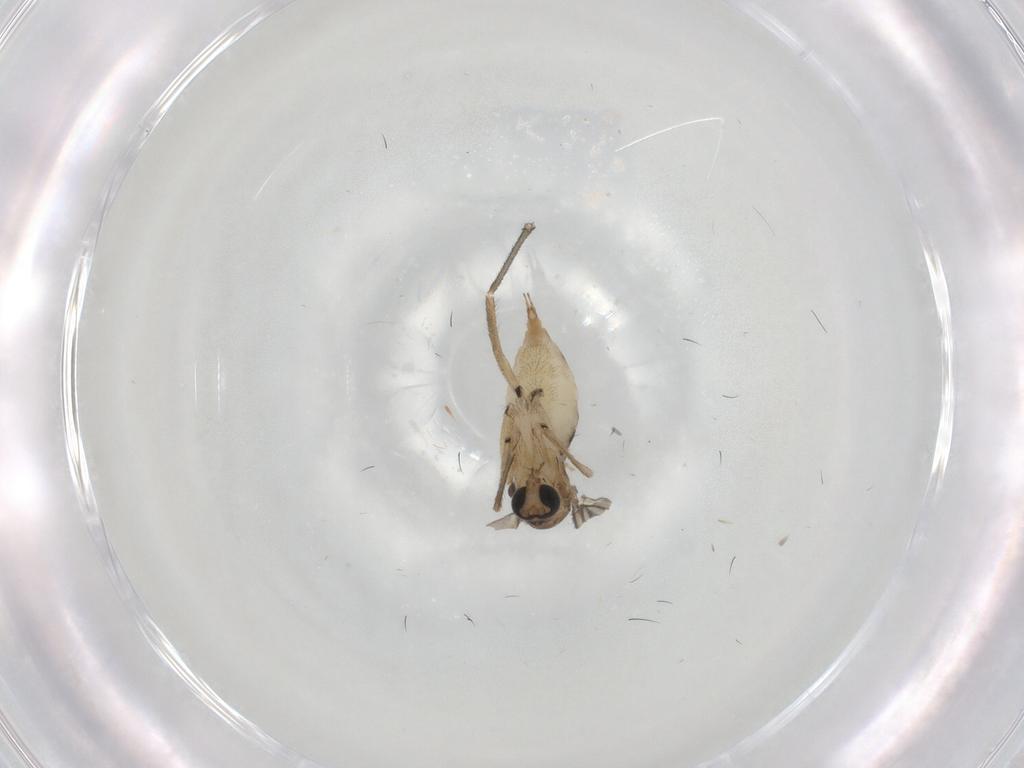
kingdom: Animalia
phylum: Arthropoda
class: Insecta
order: Diptera
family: Sciaridae
